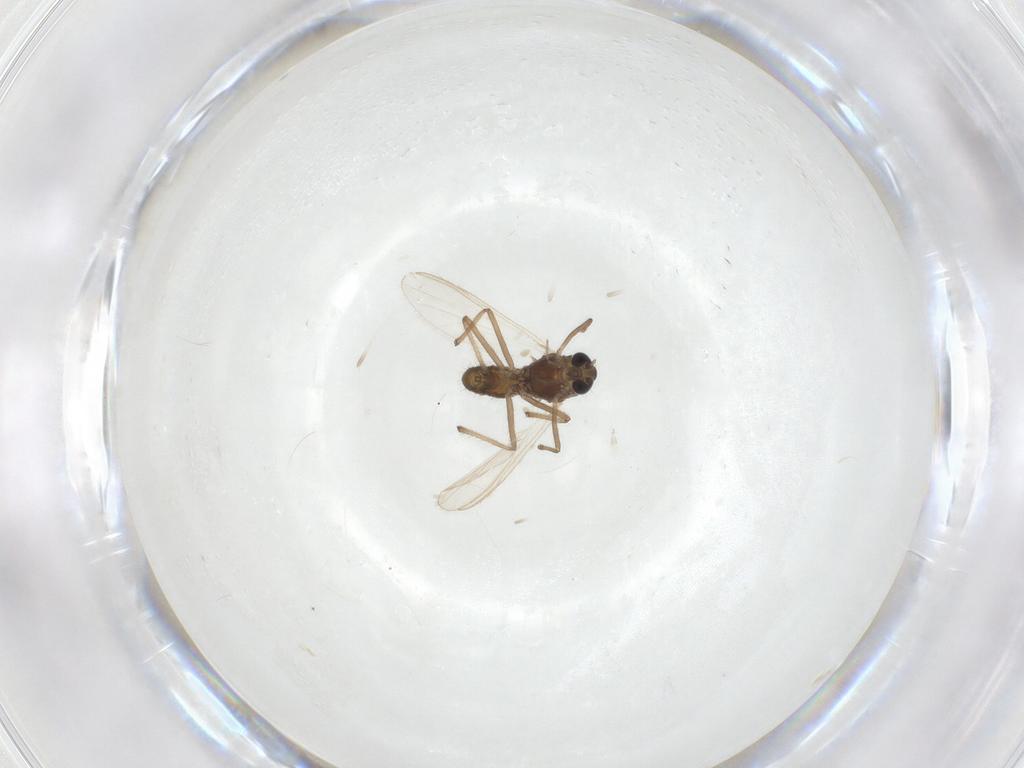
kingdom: Animalia
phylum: Arthropoda
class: Insecta
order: Diptera
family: Chironomidae
